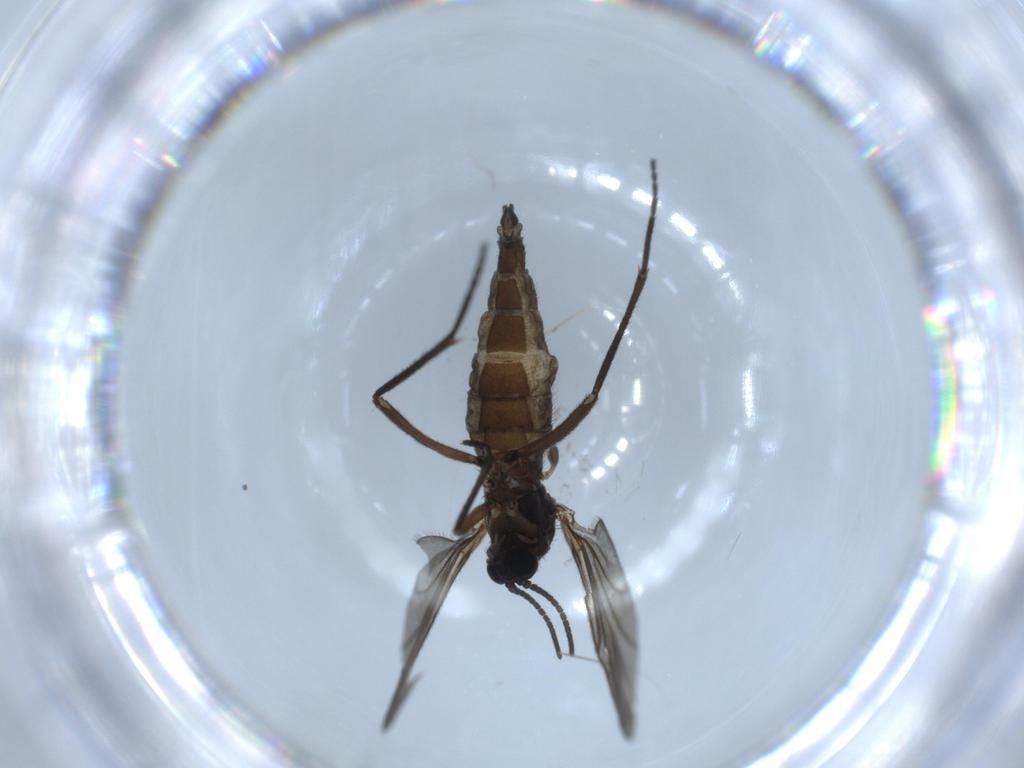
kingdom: Animalia
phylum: Arthropoda
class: Insecta
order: Diptera
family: Sciaridae
